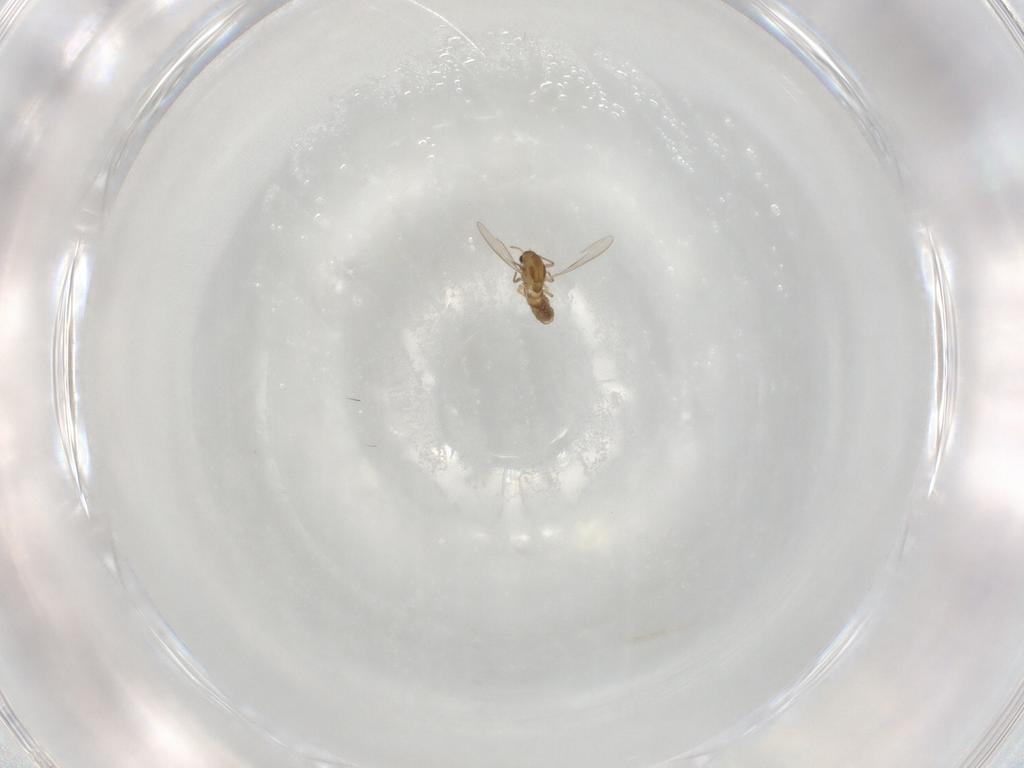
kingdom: Animalia
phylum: Arthropoda
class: Insecta
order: Diptera
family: Chironomidae
